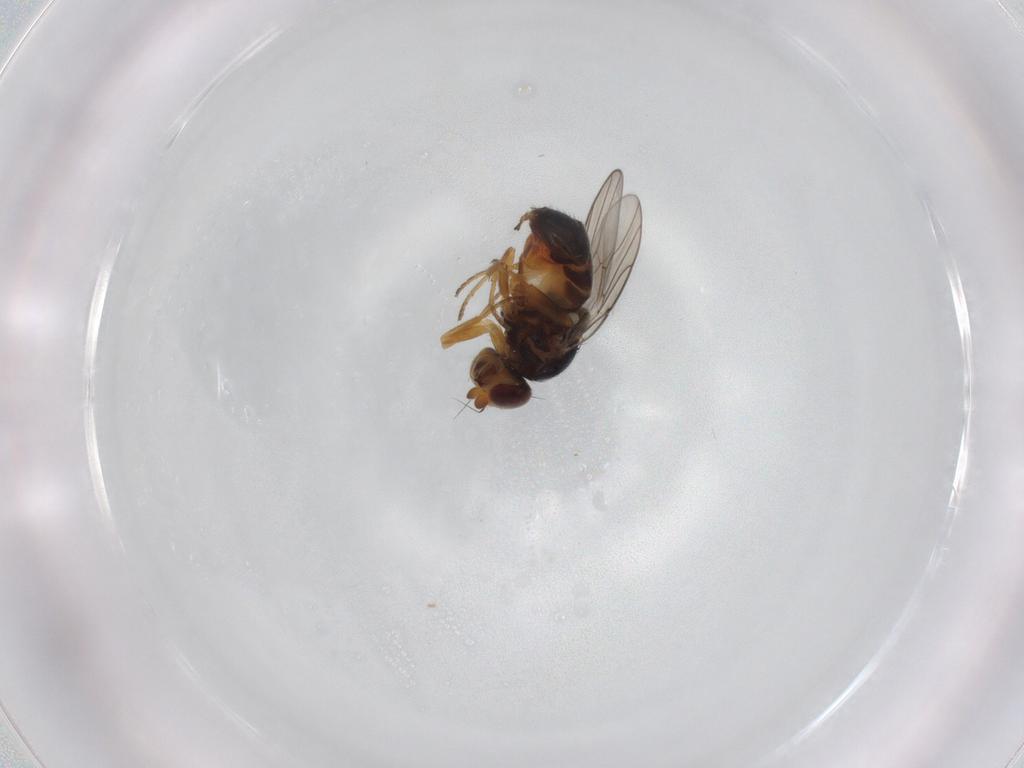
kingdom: Animalia
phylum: Arthropoda
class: Insecta
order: Diptera
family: Chloropidae
